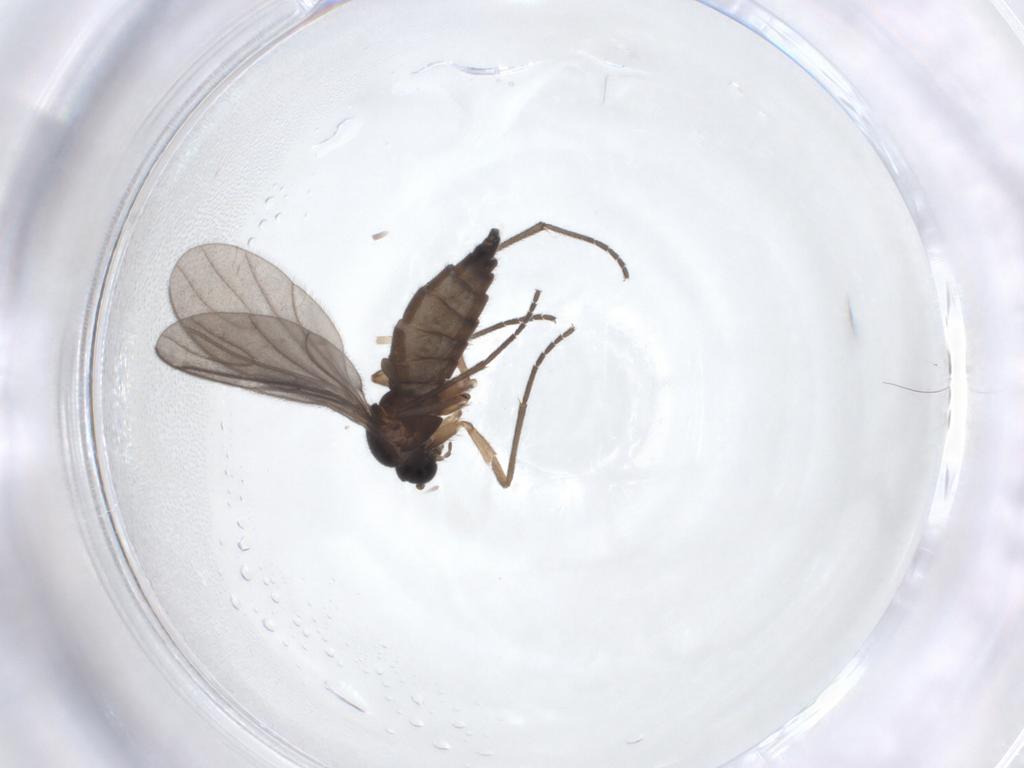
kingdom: Animalia
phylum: Arthropoda
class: Insecta
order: Diptera
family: Sciaridae
